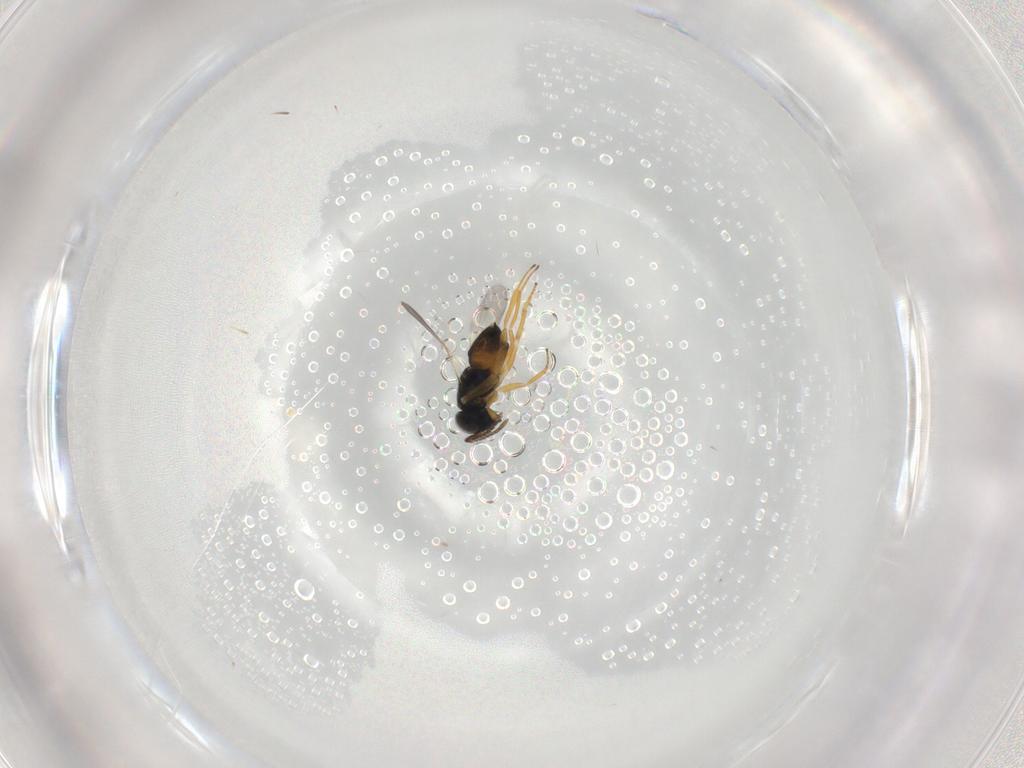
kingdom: Animalia
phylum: Arthropoda
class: Insecta
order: Hymenoptera
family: Encyrtidae
